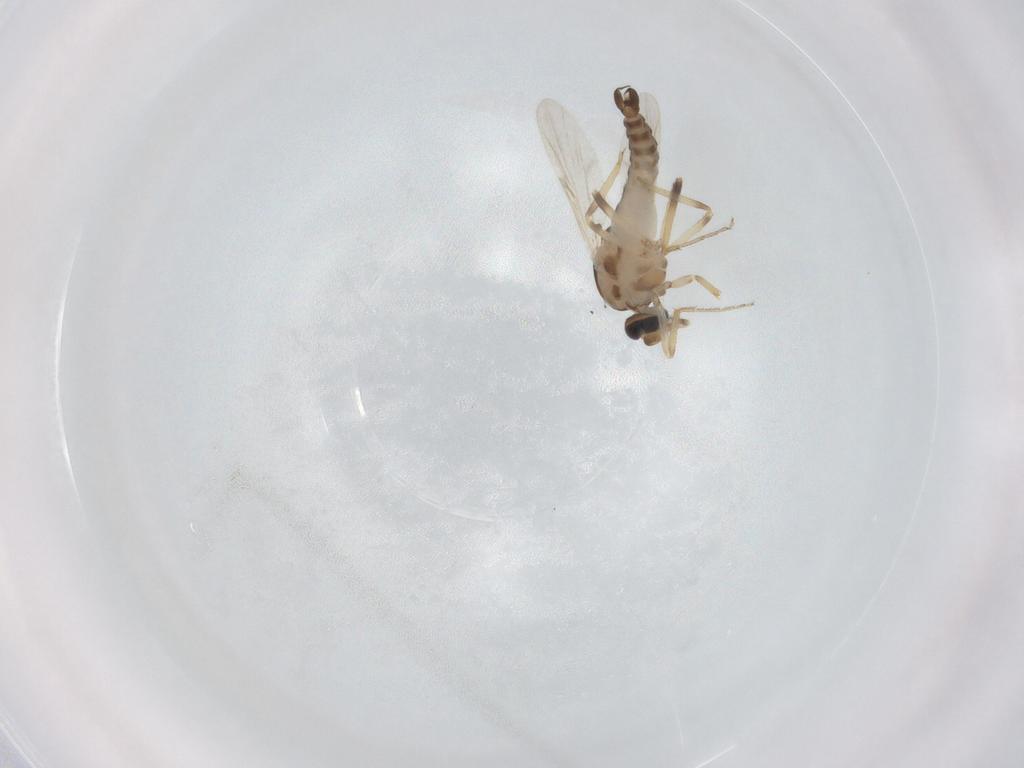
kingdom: Animalia
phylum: Arthropoda
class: Insecta
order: Diptera
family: Ceratopogonidae
